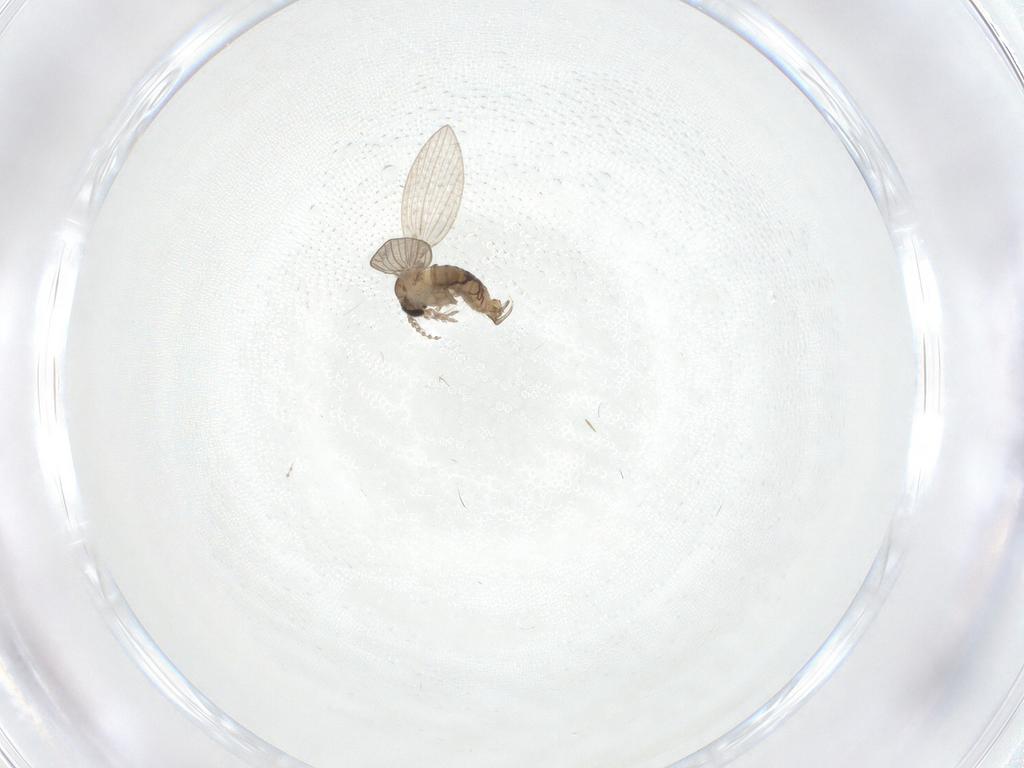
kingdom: Animalia
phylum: Arthropoda
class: Insecta
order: Diptera
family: Psychodidae
